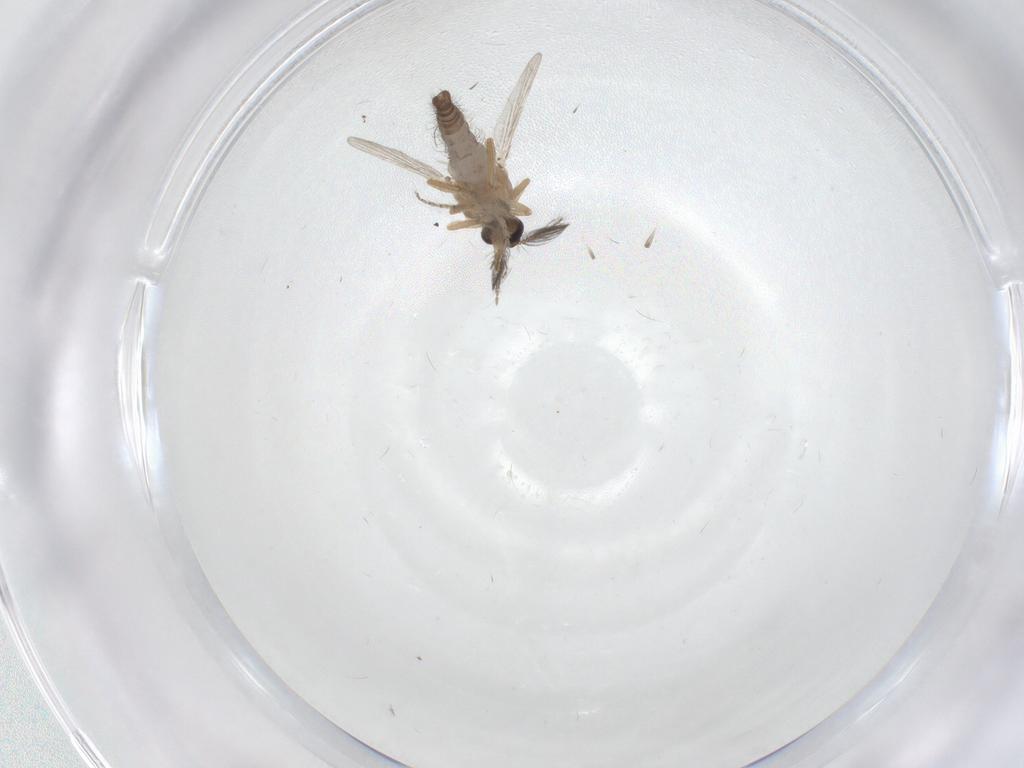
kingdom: Animalia
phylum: Arthropoda
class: Insecta
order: Diptera
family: Ceratopogonidae
